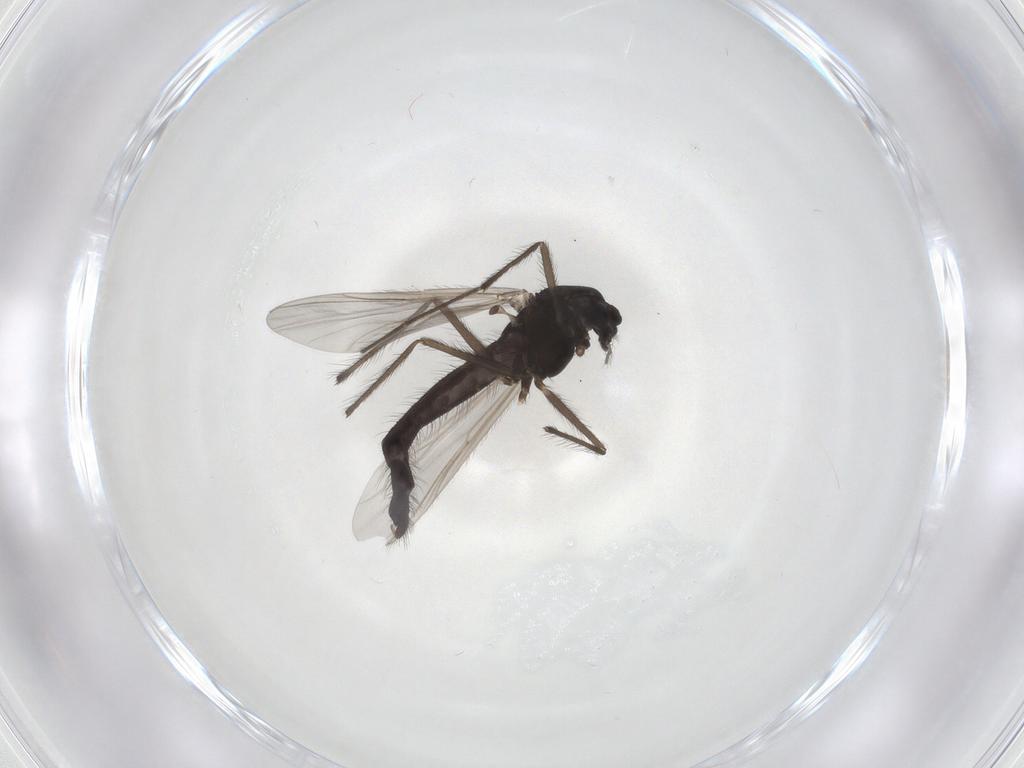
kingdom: Animalia
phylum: Arthropoda
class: Insecta
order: Diptera
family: Chironomidae
